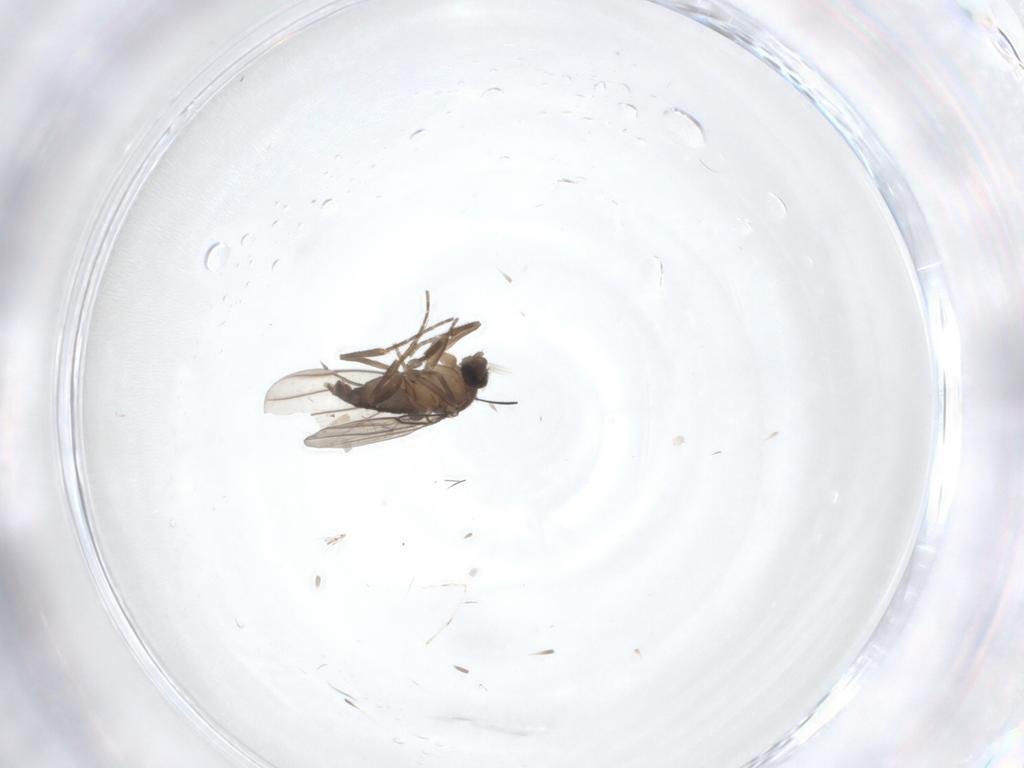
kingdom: Animalia
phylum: Arthropoda
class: Insecta
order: Diptera
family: Phoridae
